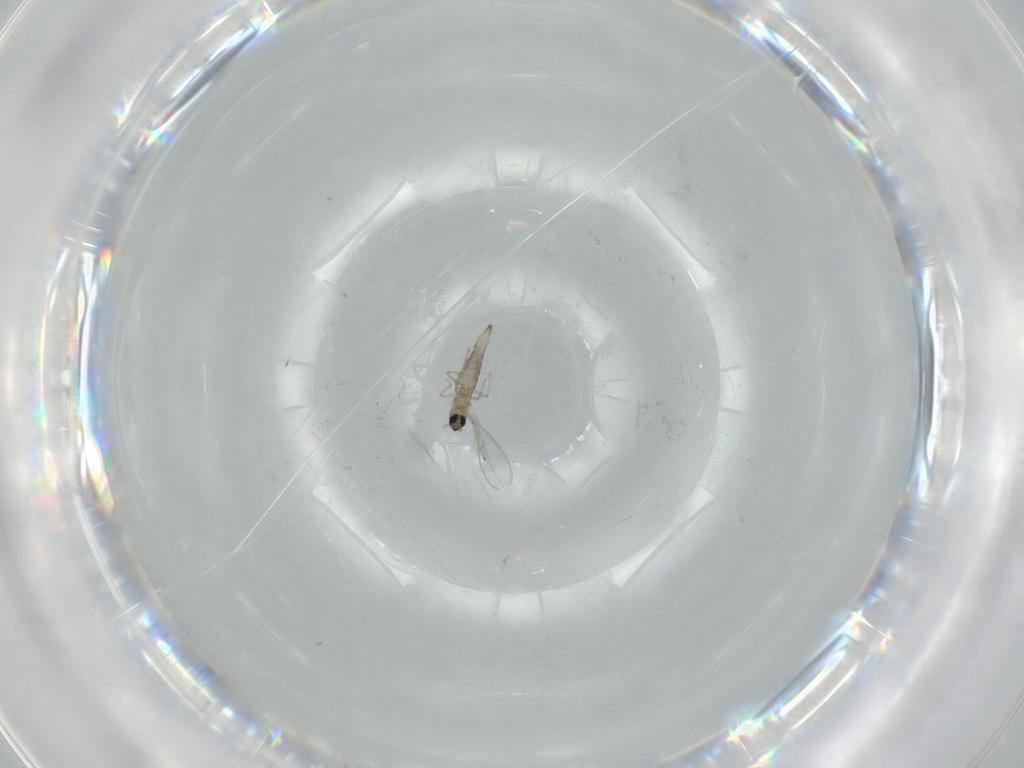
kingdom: Animalia
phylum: Arthropoda
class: Insecta
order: Diptera
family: Cecidomyiidae
